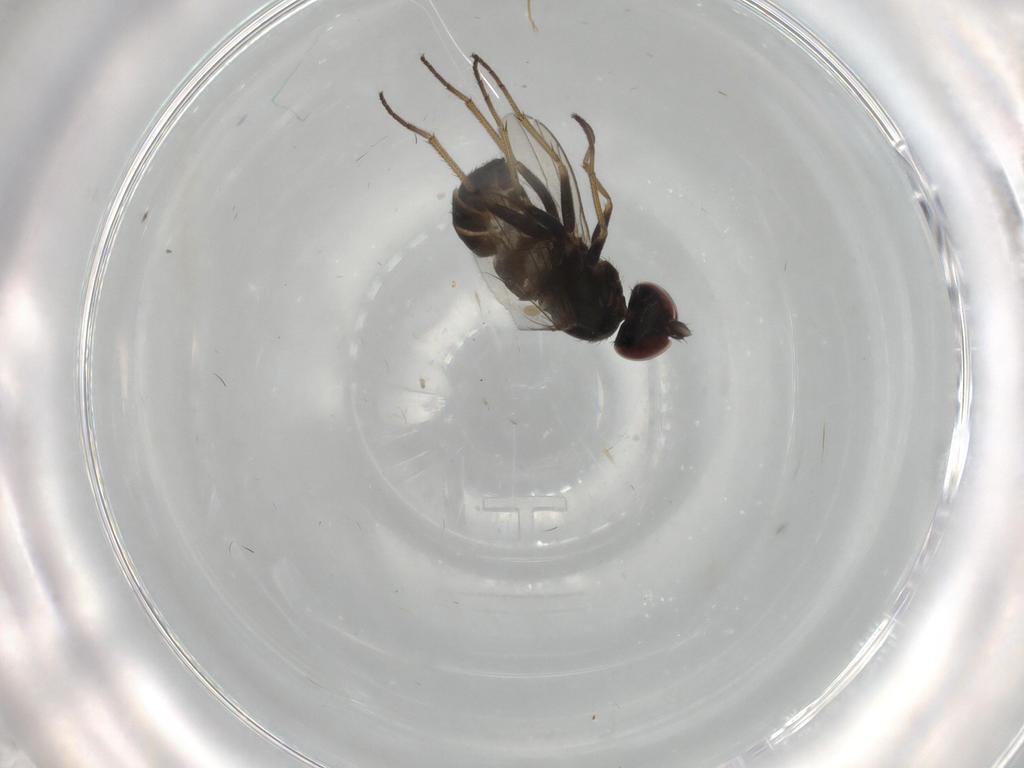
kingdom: Animalia
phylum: Arthropoda
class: Insecta
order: Diptera
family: Dolichopodidae
